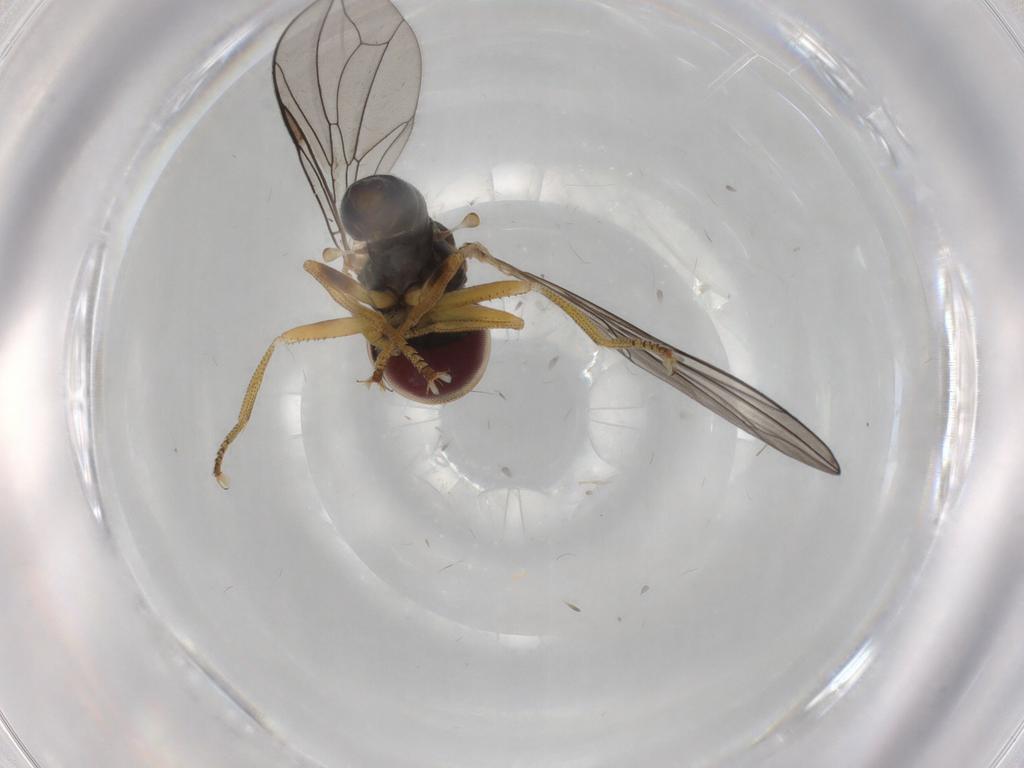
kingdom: Animalia
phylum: Arthropoda
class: Insecta
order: Diptera
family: Pipunculidae
